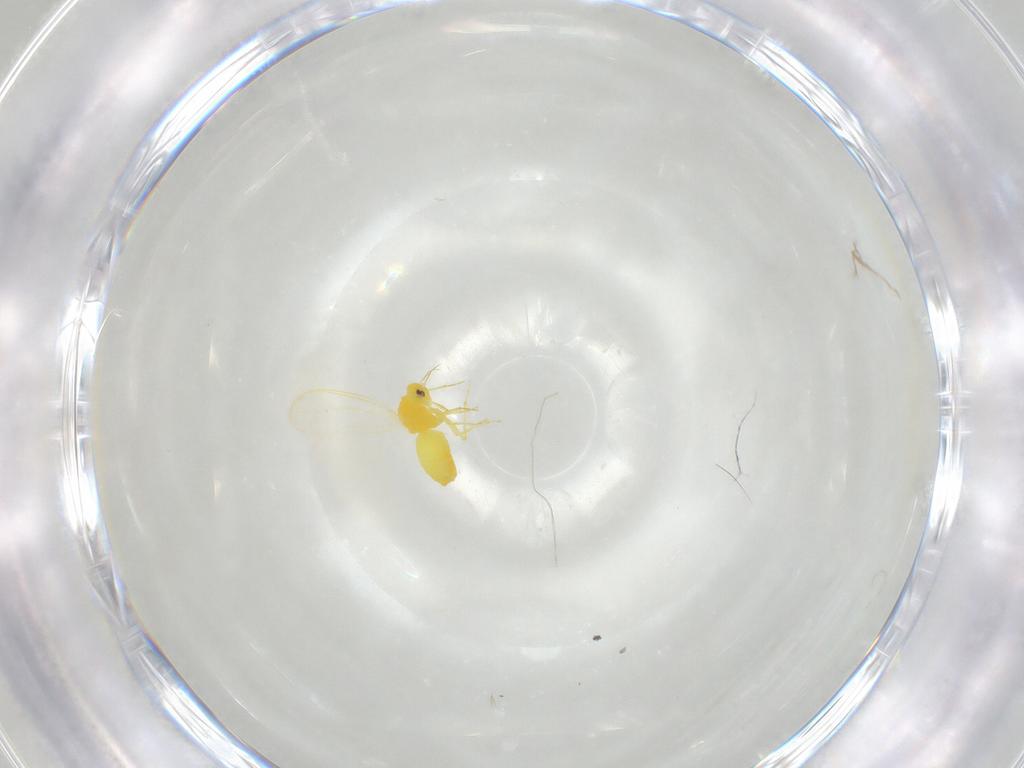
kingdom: Animalia
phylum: Arthropoda
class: Insecta
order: Hemiptera
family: Aleyrodidae
